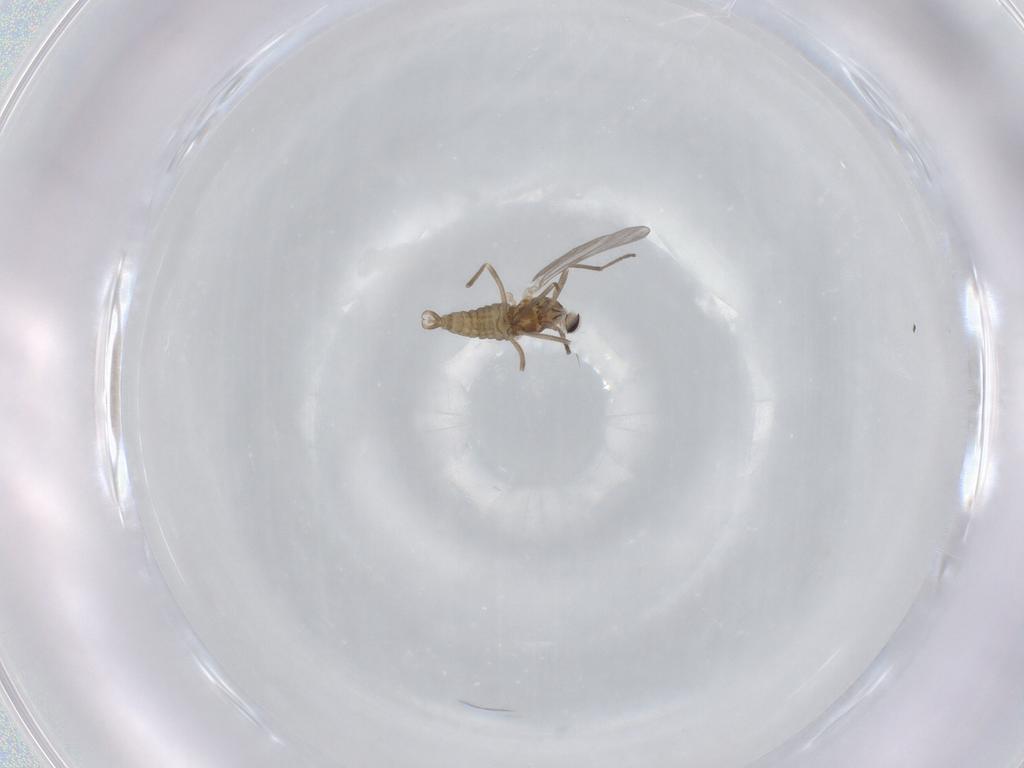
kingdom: Animalia
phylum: Arthropoda
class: Insecta
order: Diptera
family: Cecidomyiidae
